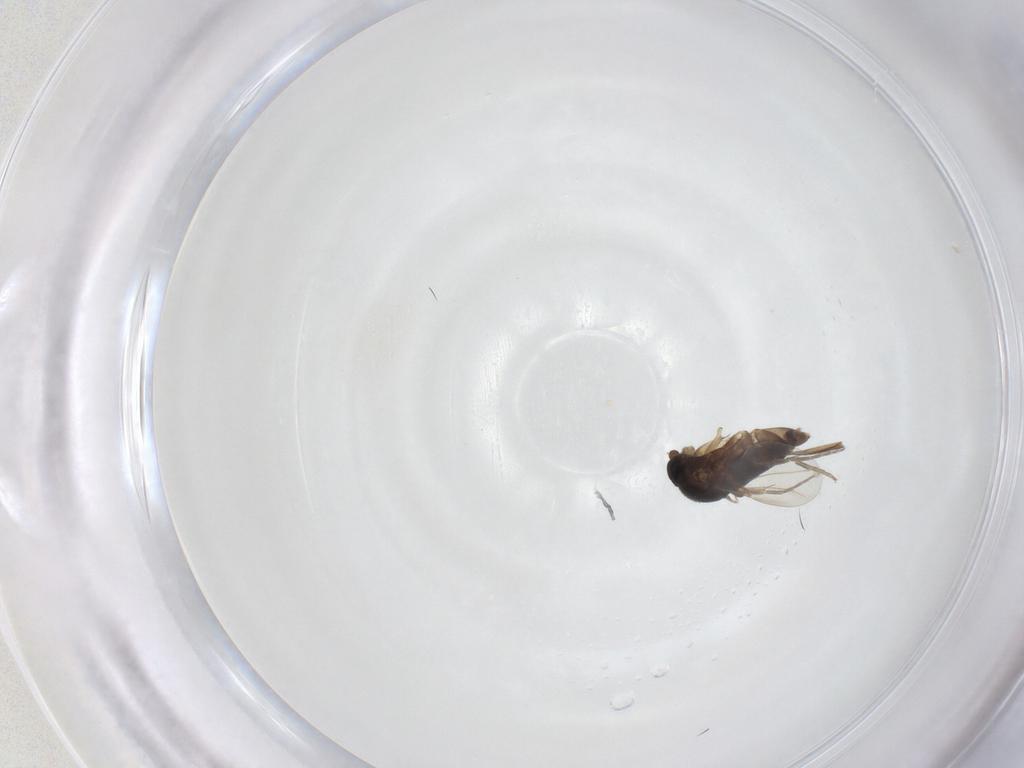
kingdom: Animalia
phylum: Arthropoda
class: Insecta
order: Diptera
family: Phoridae
